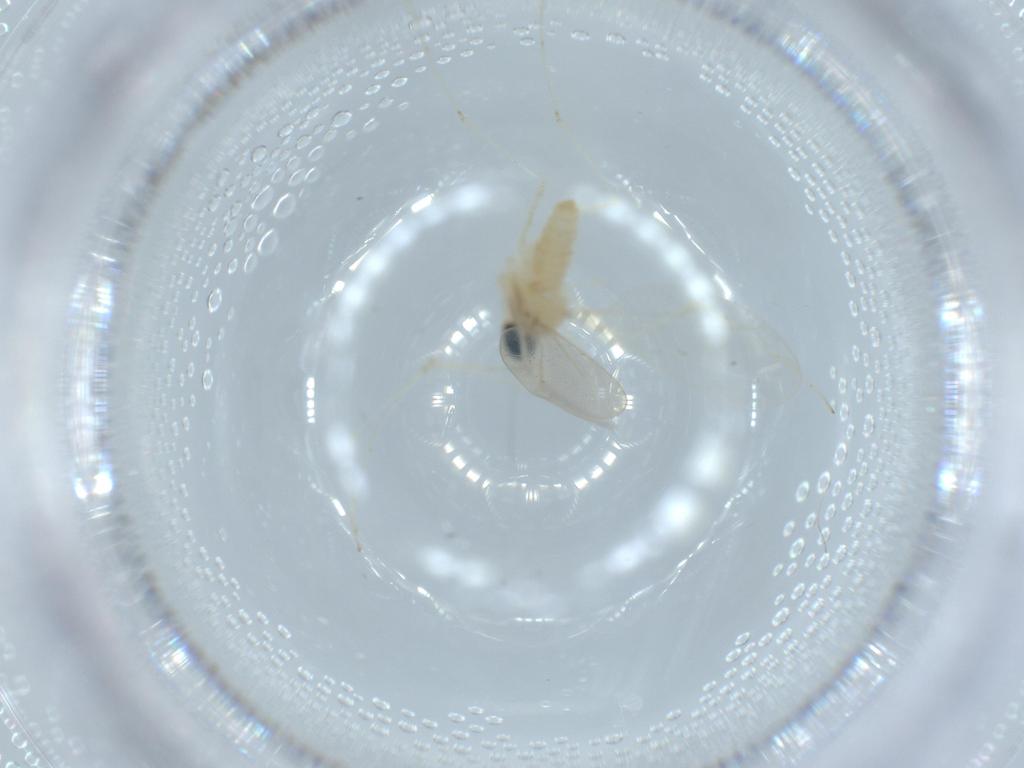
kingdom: Animalia
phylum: Arthropoda
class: Insecta
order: Diptera
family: Cecidomyiidae
